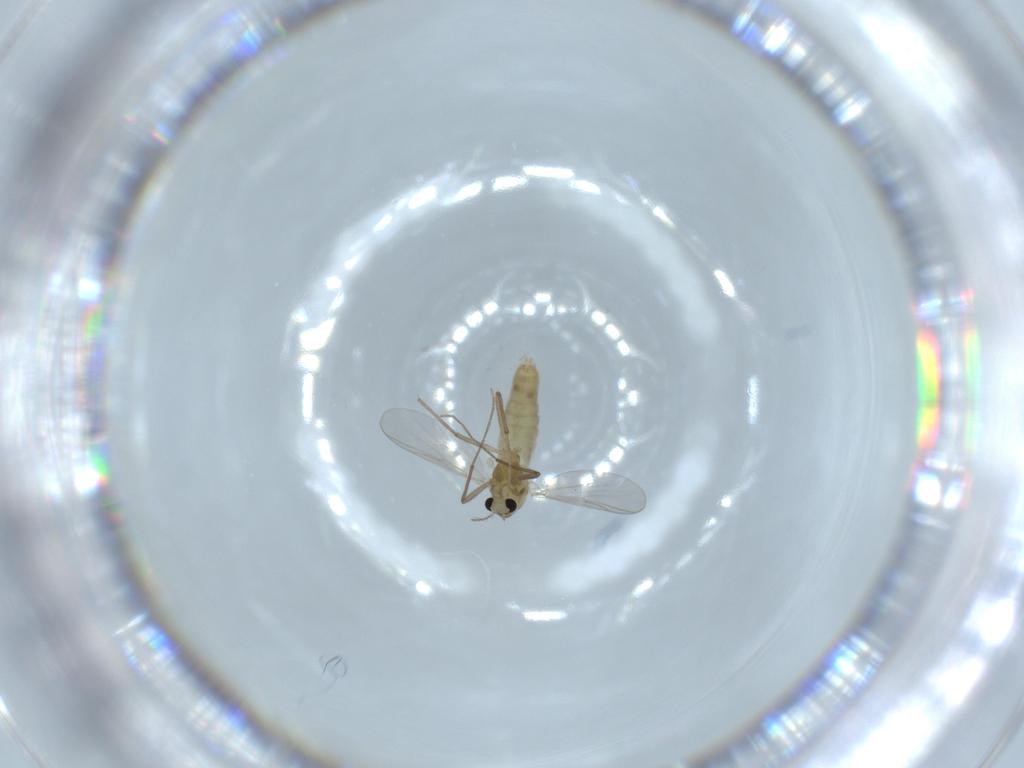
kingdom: Animalia
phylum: Arthropoda
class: Insecta
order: Diptera
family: Chironomidae
